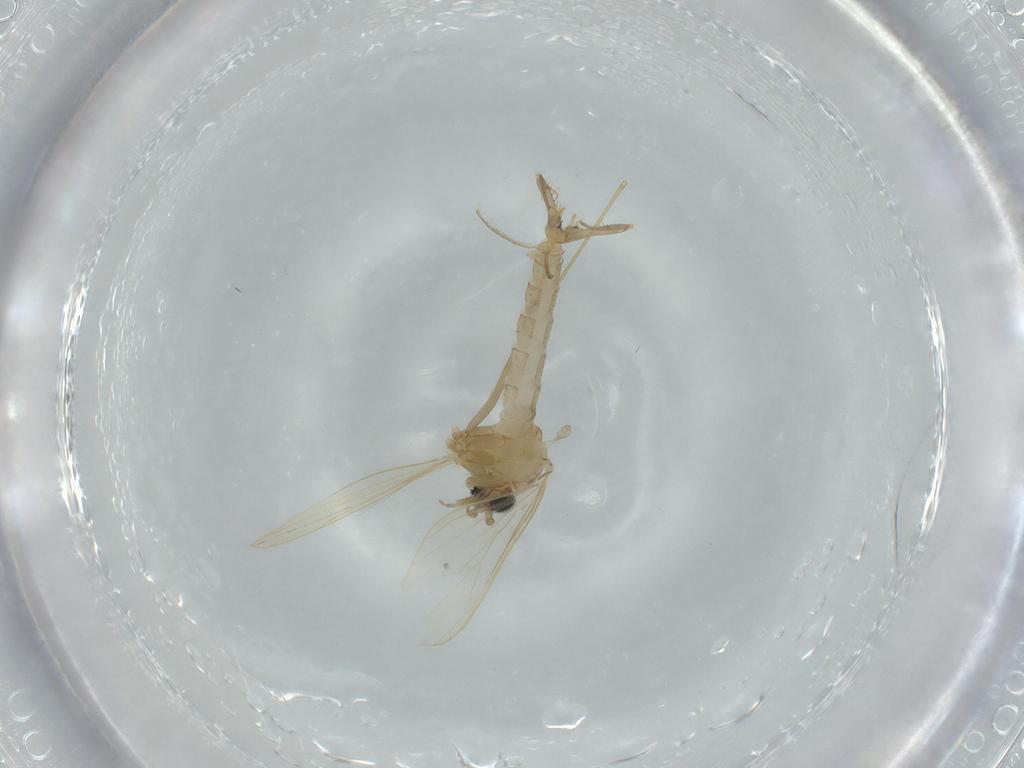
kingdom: Animalia
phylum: Arthropoda
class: Insecta
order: Diptera
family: Psychodidae
